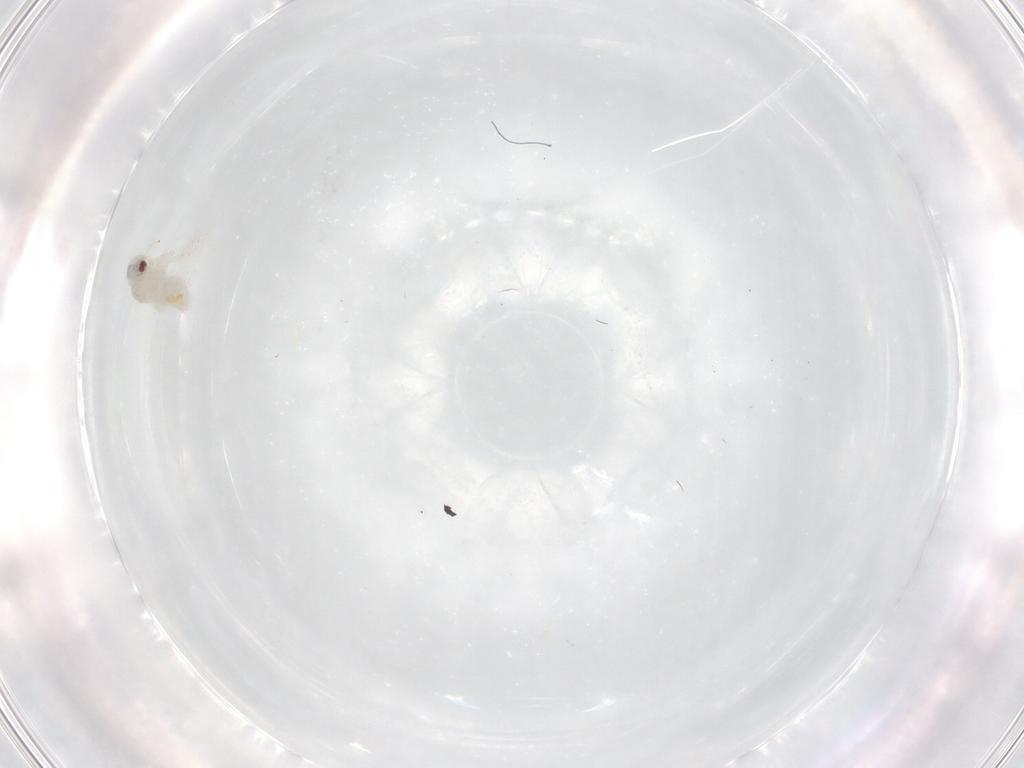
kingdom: Animalia
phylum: Arthropoda
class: Insecta
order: Hemiptera
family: Aleyrodidae
